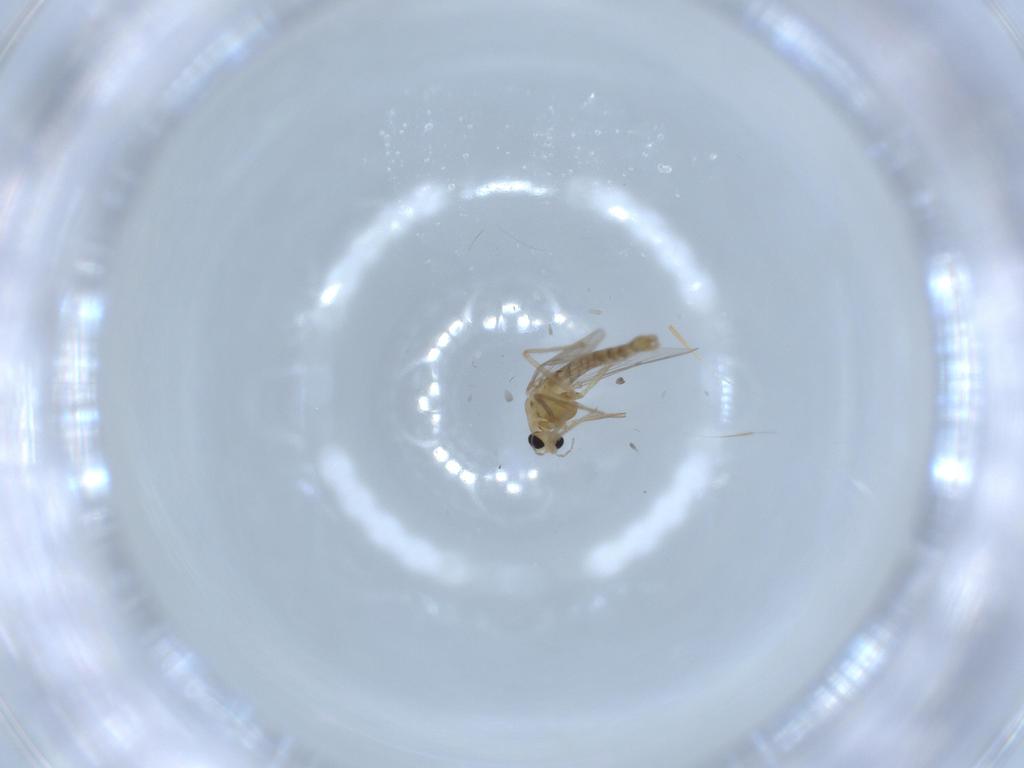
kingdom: Animalia
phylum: Arthropoda
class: Insecta
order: Diptera
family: Chironomidae
